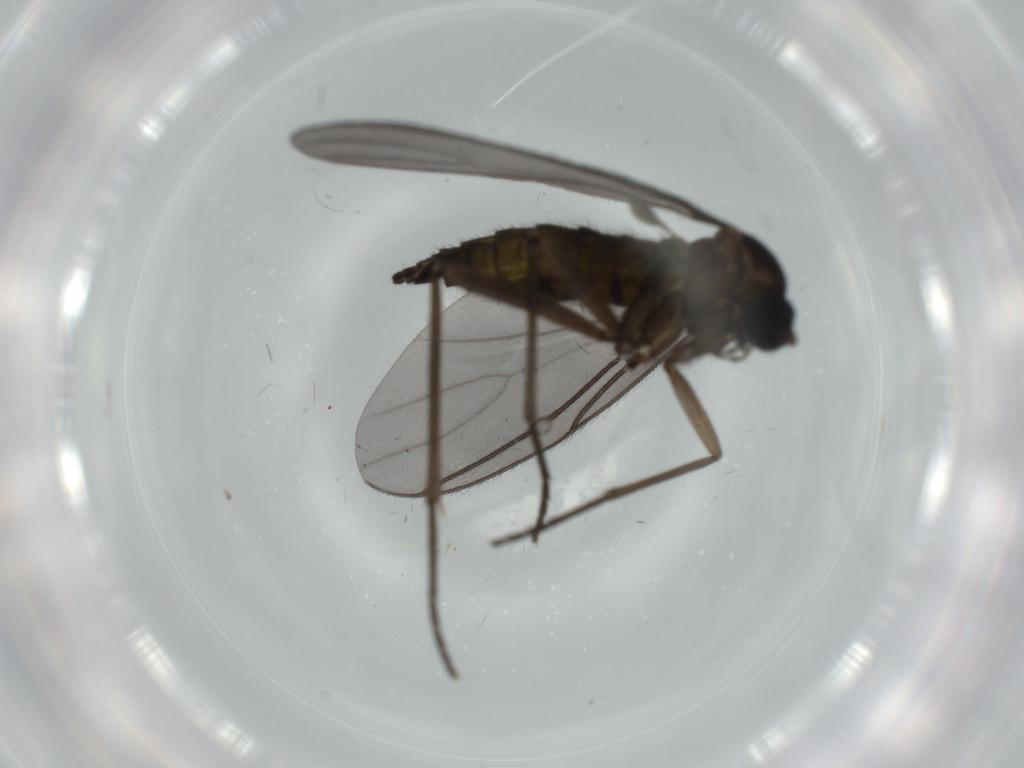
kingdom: Animalia
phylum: Arthropoda
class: Insecta
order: Diptera
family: Sciaridae
